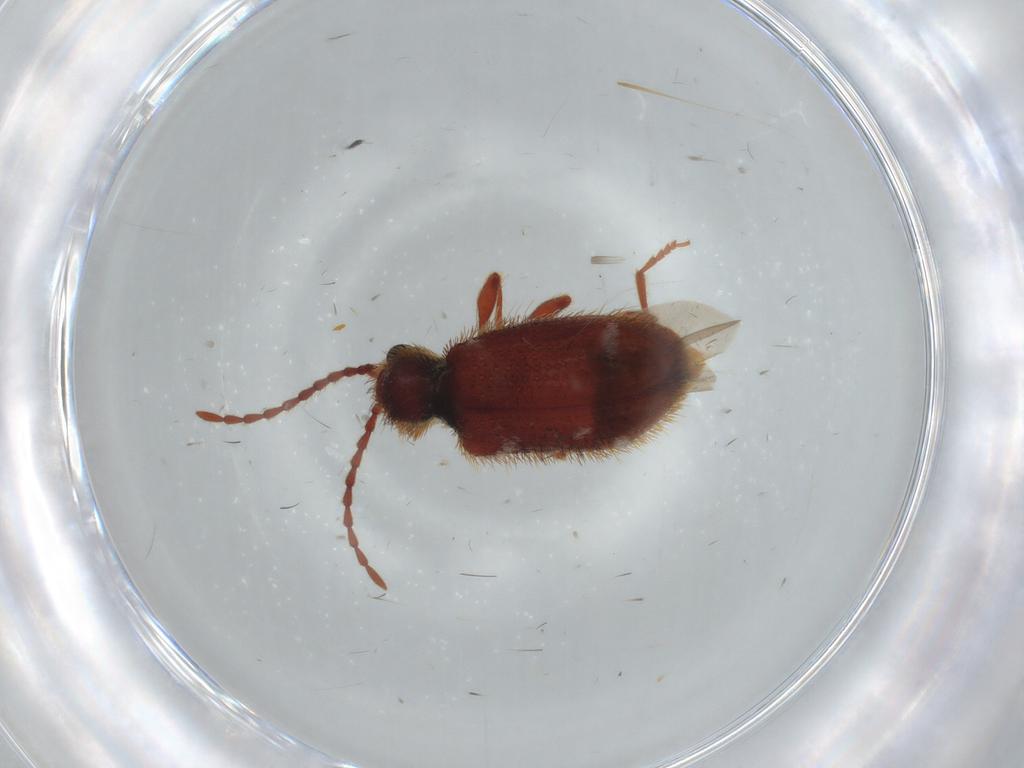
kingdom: Animalia
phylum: Arthropoda
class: Insecta
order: Coleoptera
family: Ptinidae
